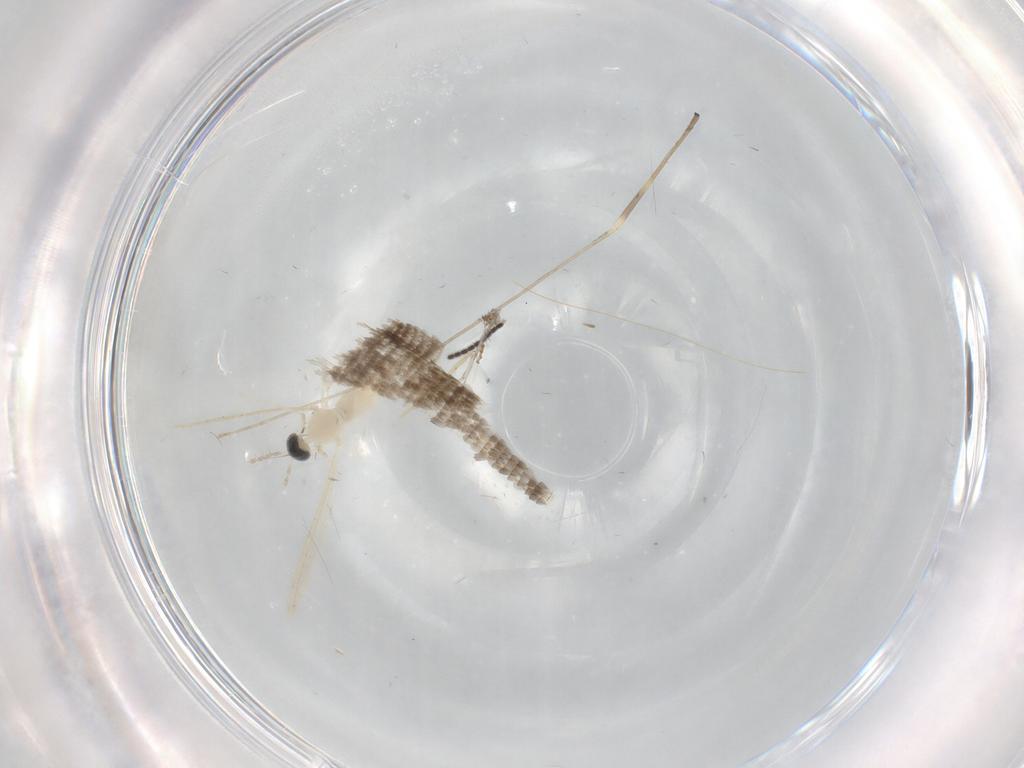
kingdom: Animalia
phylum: Arthropoda
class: Insecta
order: Diptera
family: Cecidomyiidae
